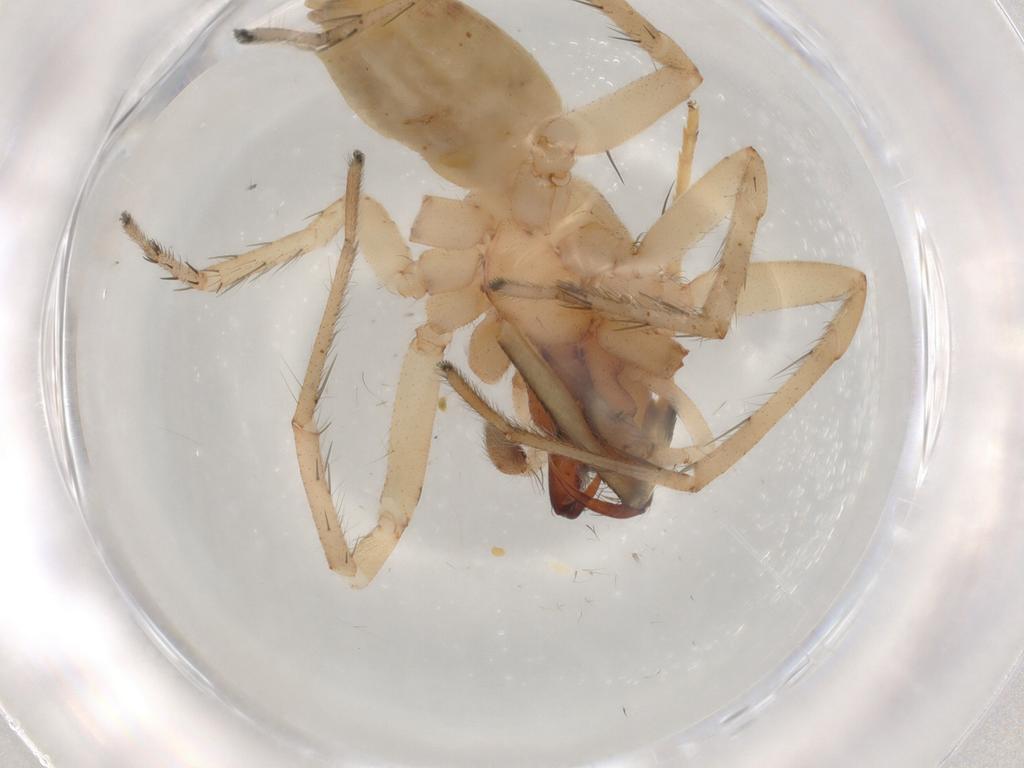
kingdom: Animalia
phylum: Arthropoda
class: Arachnida
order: Araneae
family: Anyphaenidae
